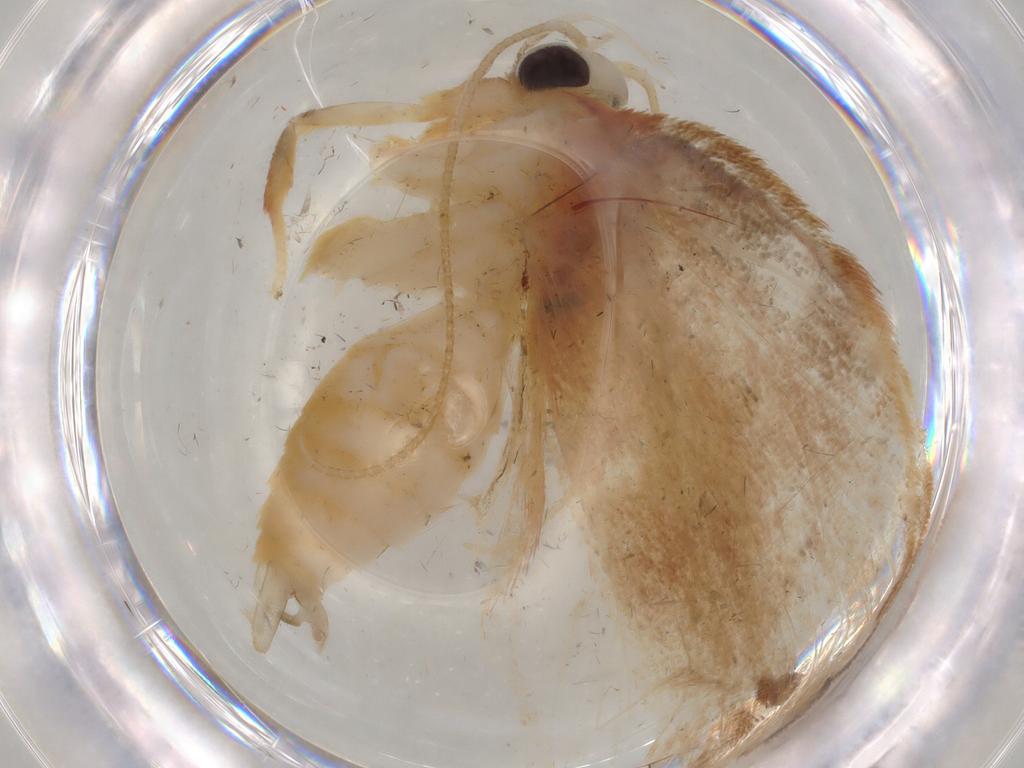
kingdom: Animalia
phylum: Arthropoda
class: Insecta
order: Lepidoptera
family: Depressariidae
